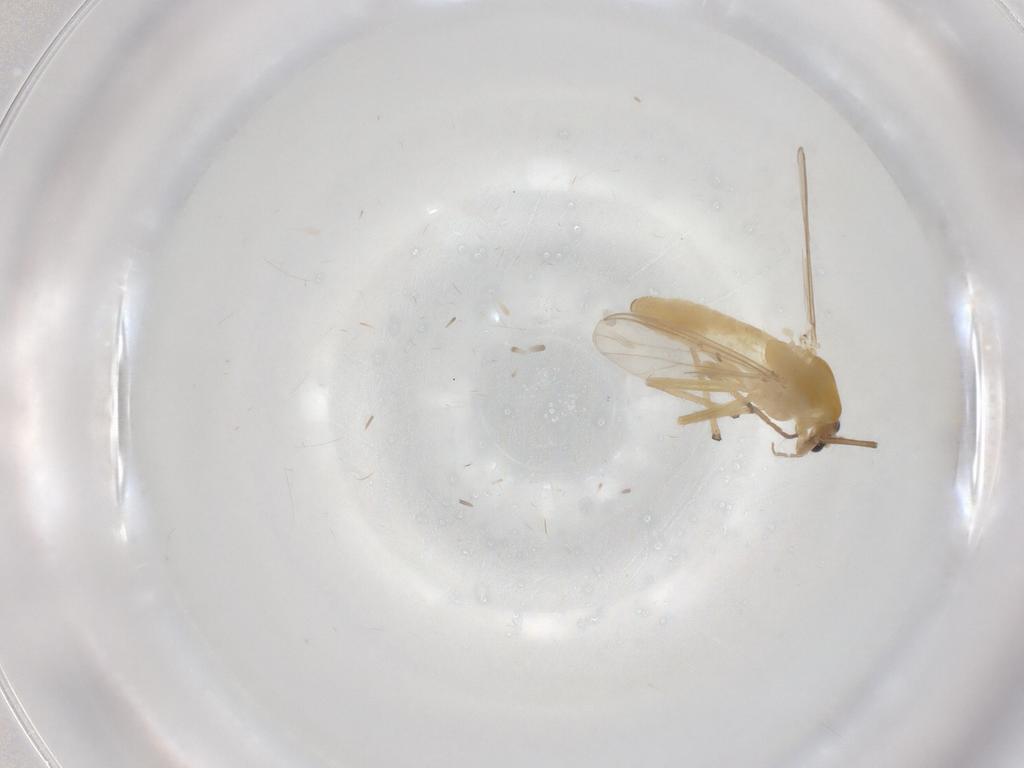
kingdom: Animalia
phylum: Arthropoda
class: Insecta
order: Diptera
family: Chironomidae
